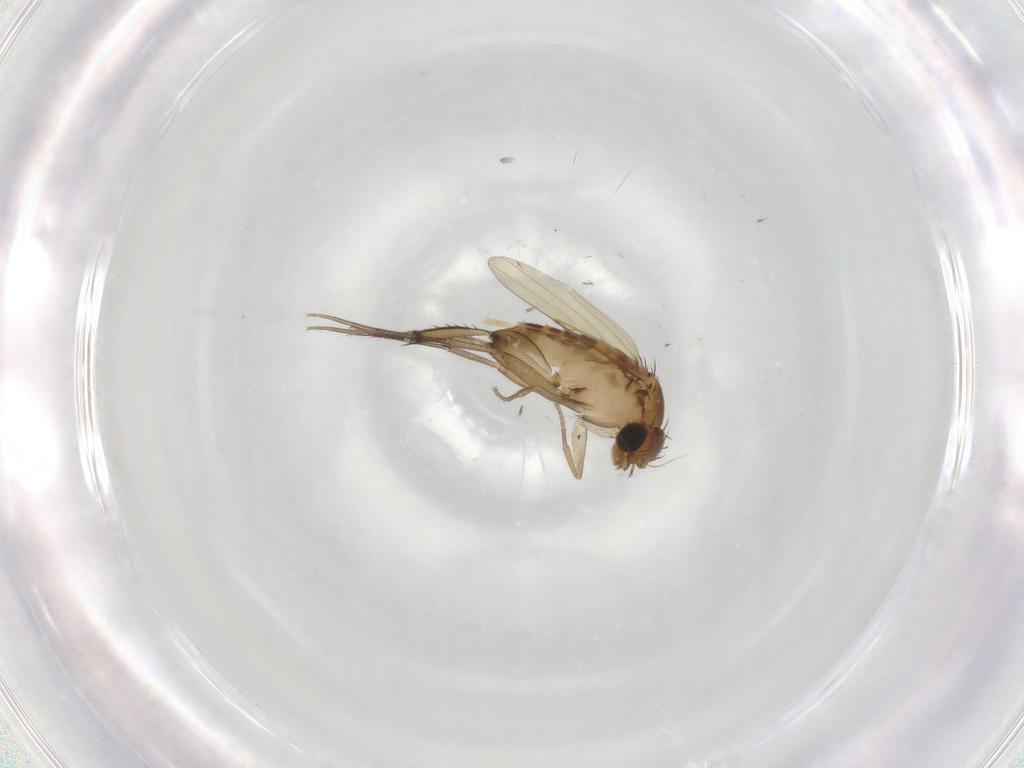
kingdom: Animalia
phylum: Arthropoda
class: Insecta
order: Diptera
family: Phoridae
